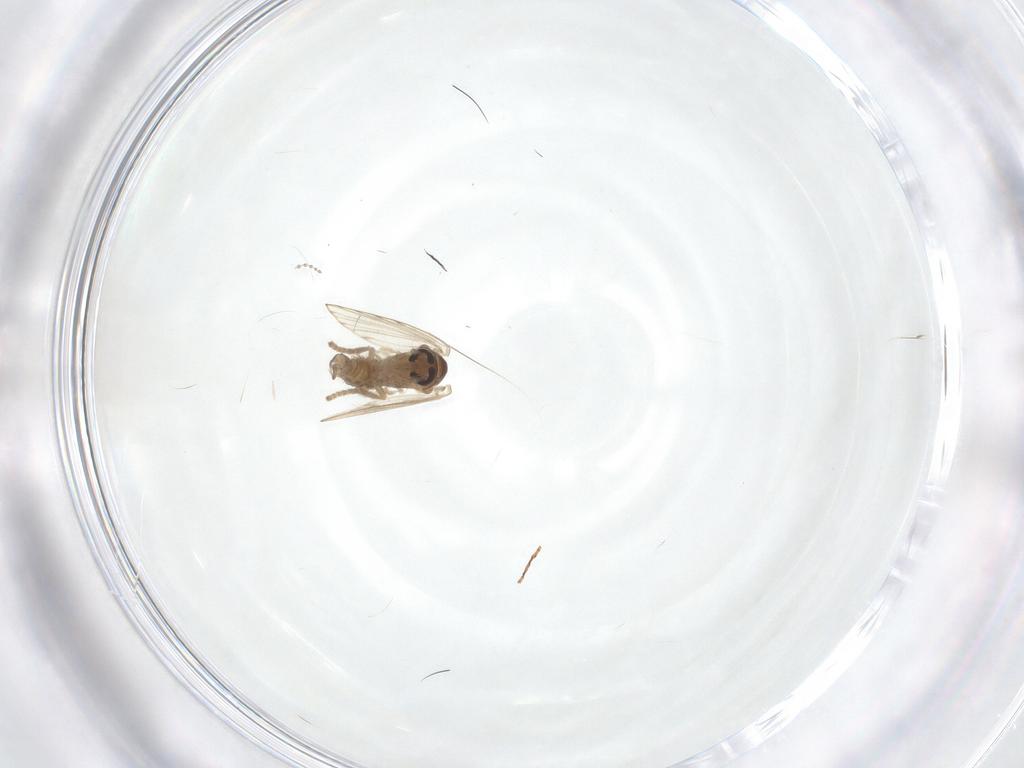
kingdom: Animalia
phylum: Arthropoda
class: Insecta
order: Diptera
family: Psychodidae
